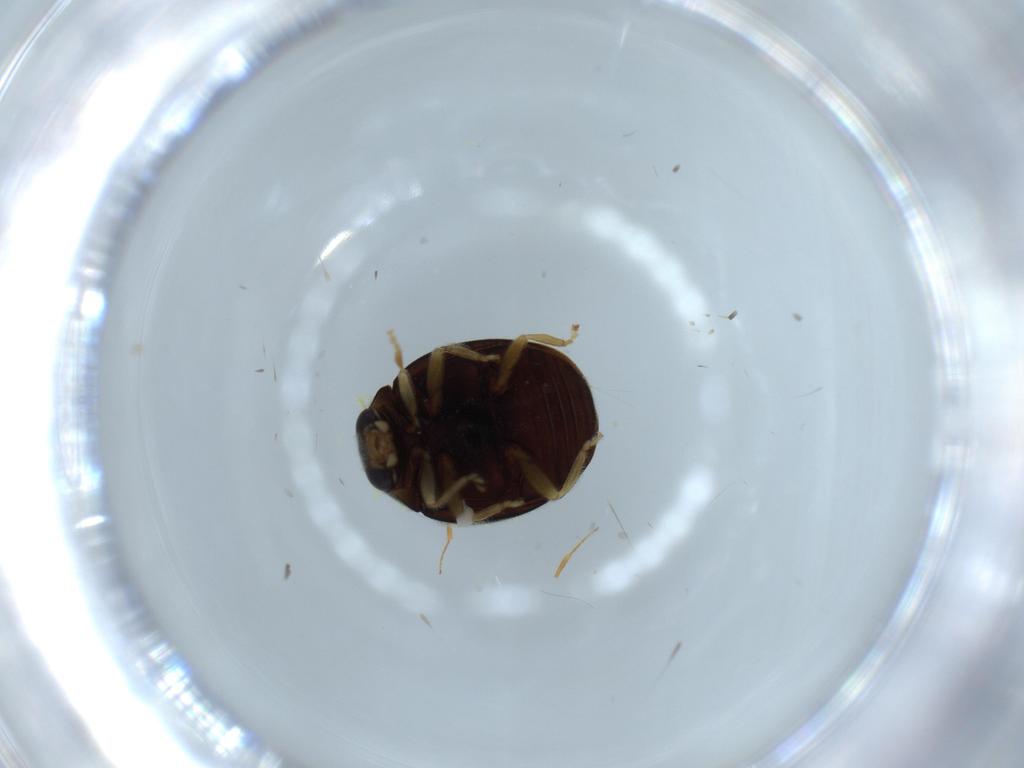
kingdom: Animalia
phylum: Arthropoda
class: Insecta
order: Coleoptera
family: Coccinellidae
